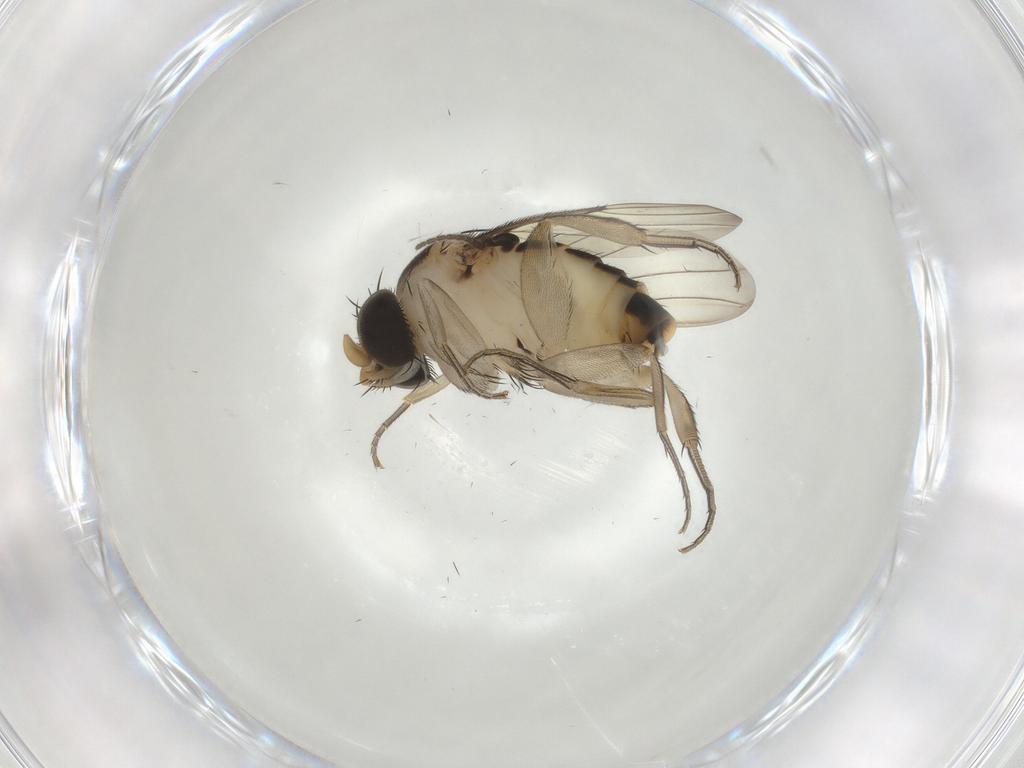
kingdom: Animalia
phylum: Arthropoda
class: Insecta
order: Diptera
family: Phoridae
